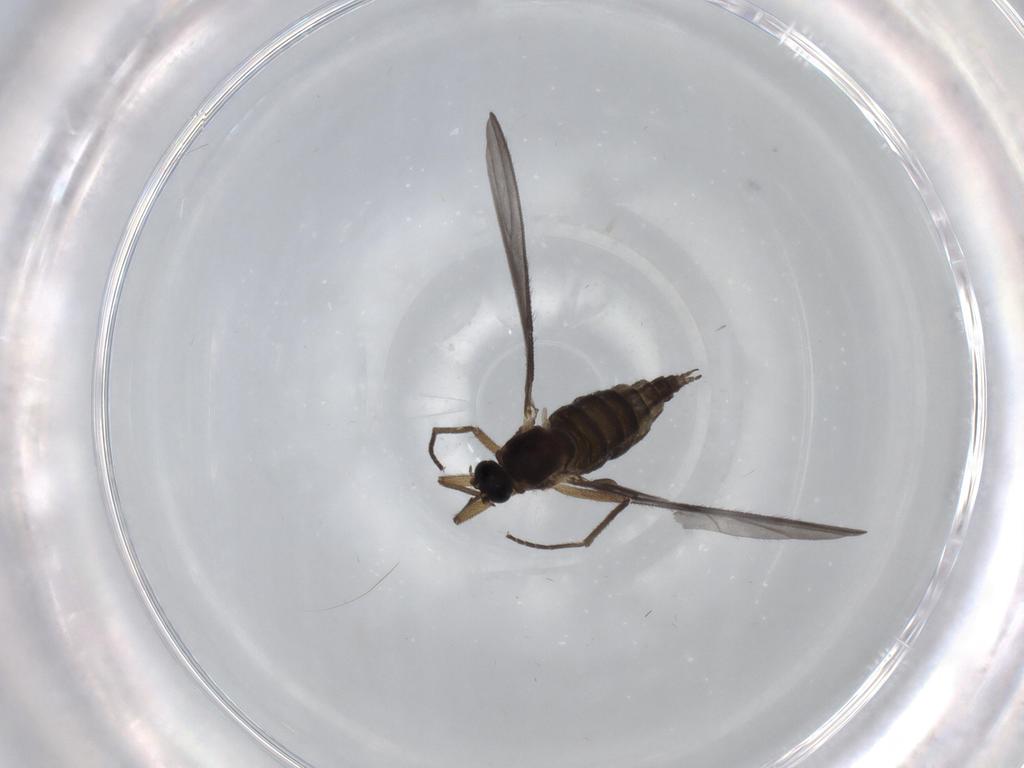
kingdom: Animalia
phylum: Arthropoda
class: Insecta
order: Diptera
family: Sciaridae
